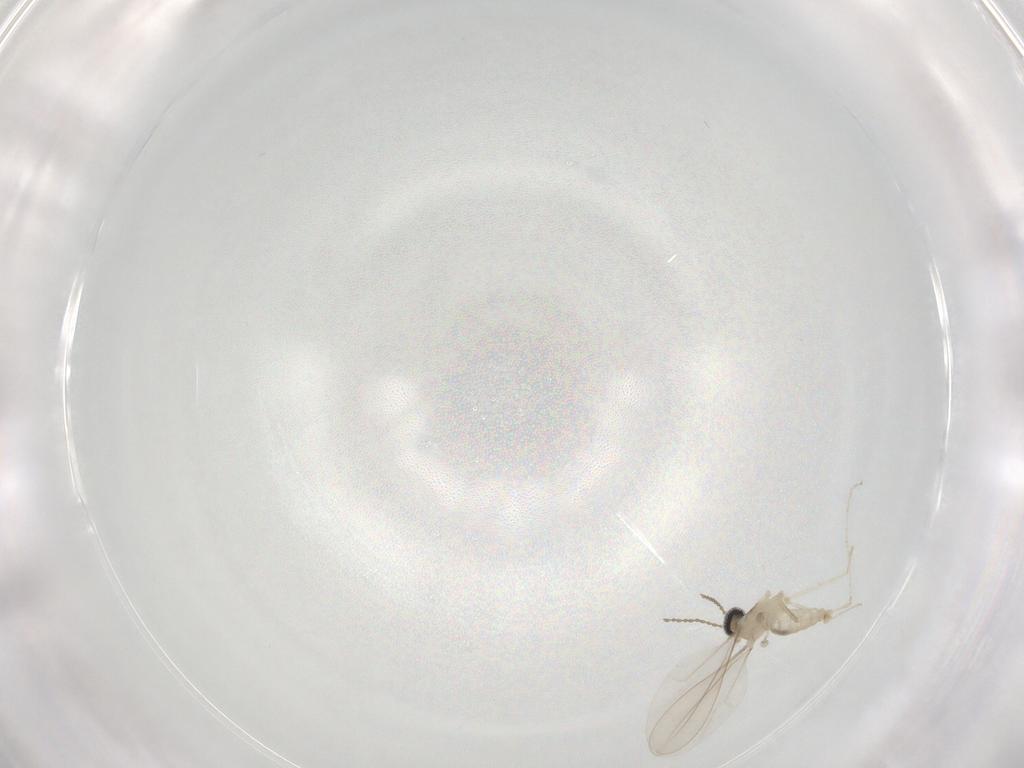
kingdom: Animalia
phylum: Arthropoda
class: Insecta
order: Diptera
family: Cecidomyiidae
